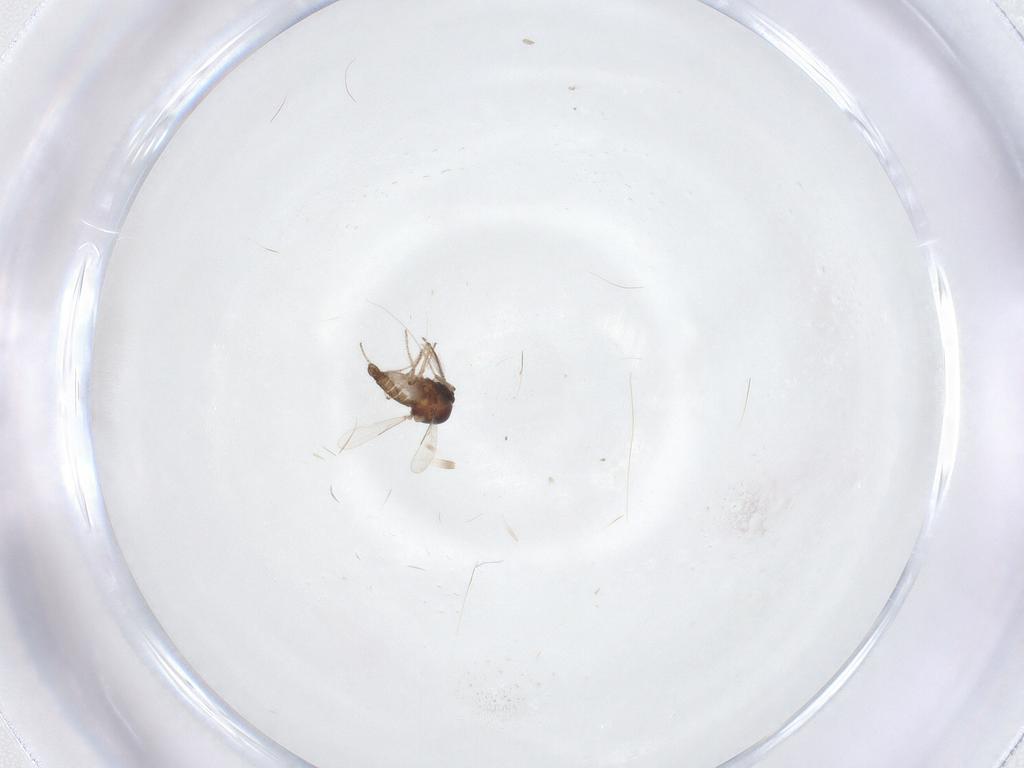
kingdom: Animalia
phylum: Arthropoda
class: Insecta
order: Diptera
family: Ceratopogonidae
